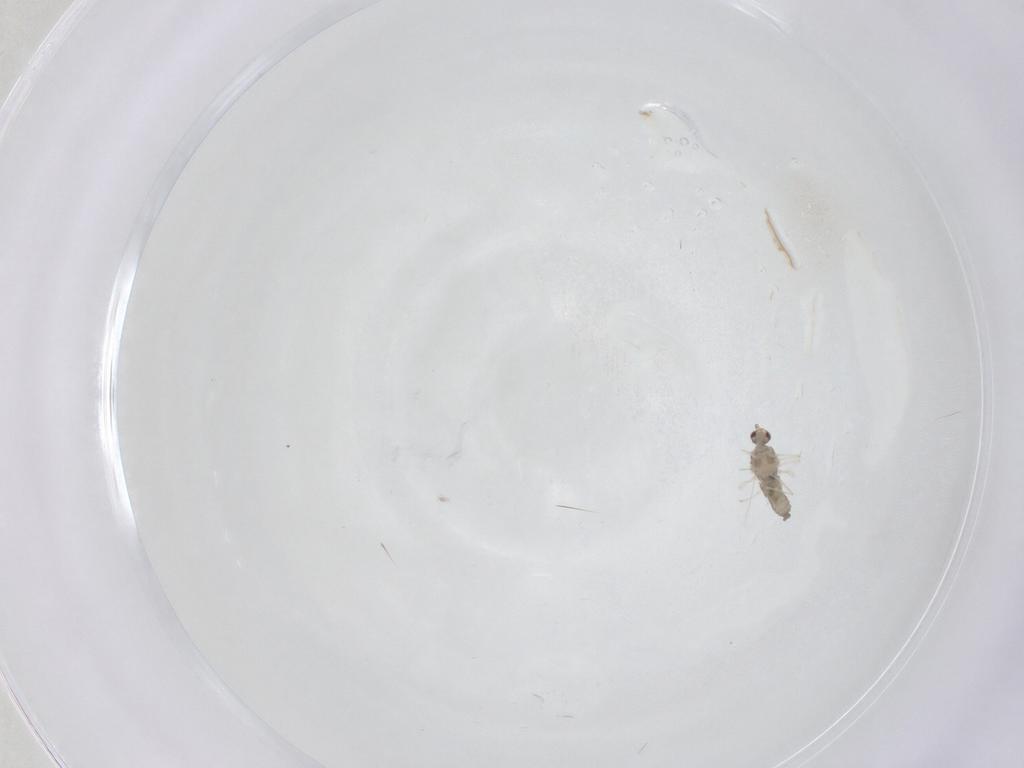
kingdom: Animalia
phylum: Arthropoda
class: Insecta
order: Diptera
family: Cecidomyiidae
